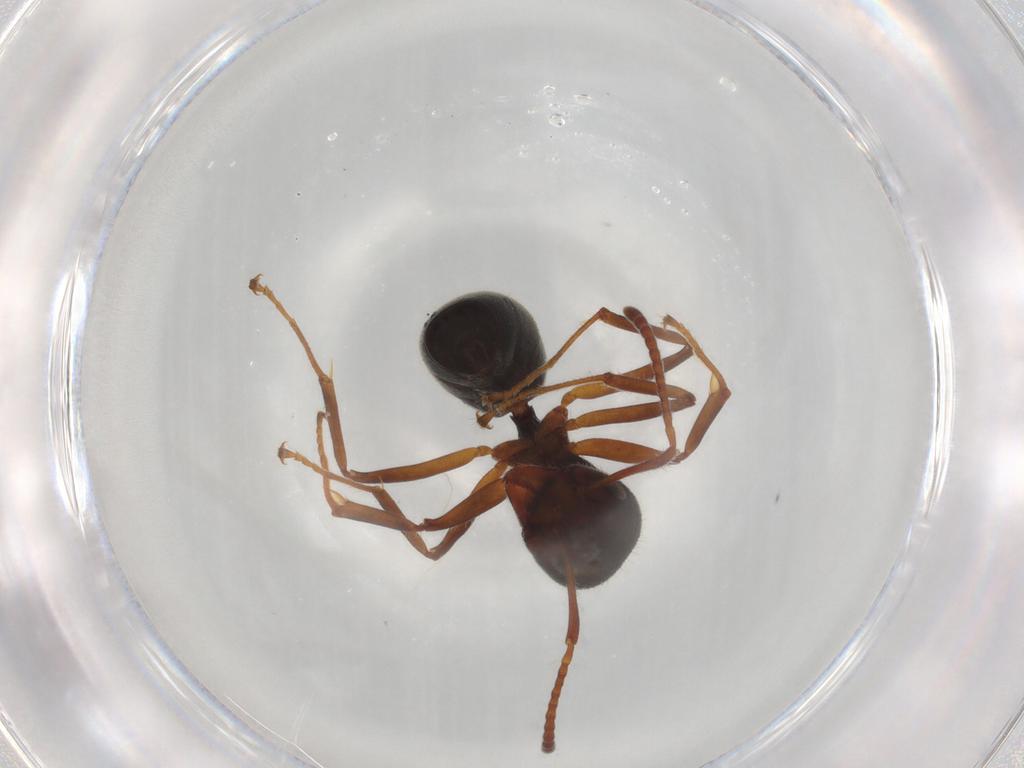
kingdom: Animalia
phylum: Arthropoda
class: Insecta
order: Hymenoptera
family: Formicidae
